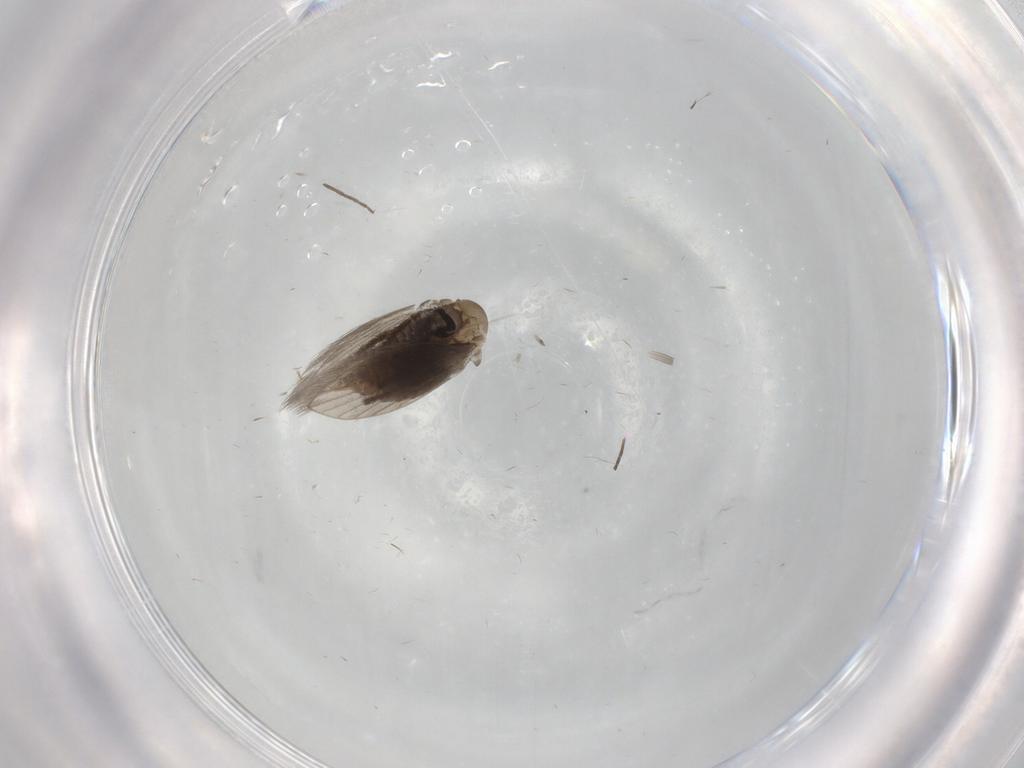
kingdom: Animalia
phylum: Arthropoda
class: Insecta
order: Diptera
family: Psychodidae
